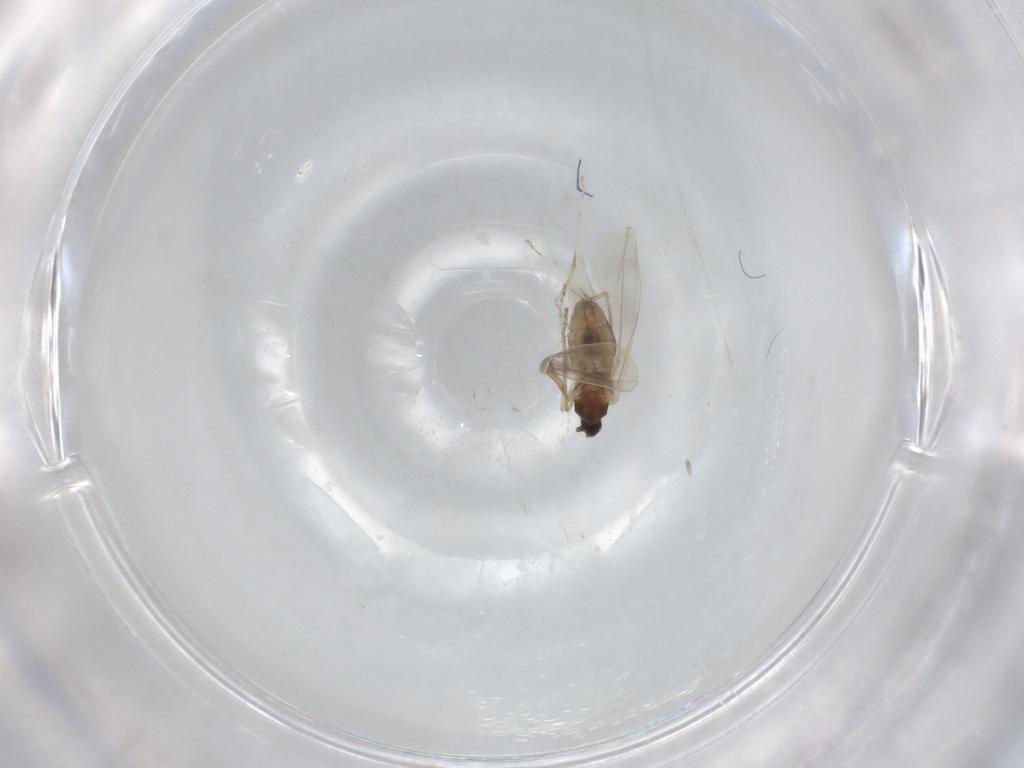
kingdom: Animalia
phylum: Arthropoda
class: Insecta
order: Diptera
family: Cecidomyiidae
